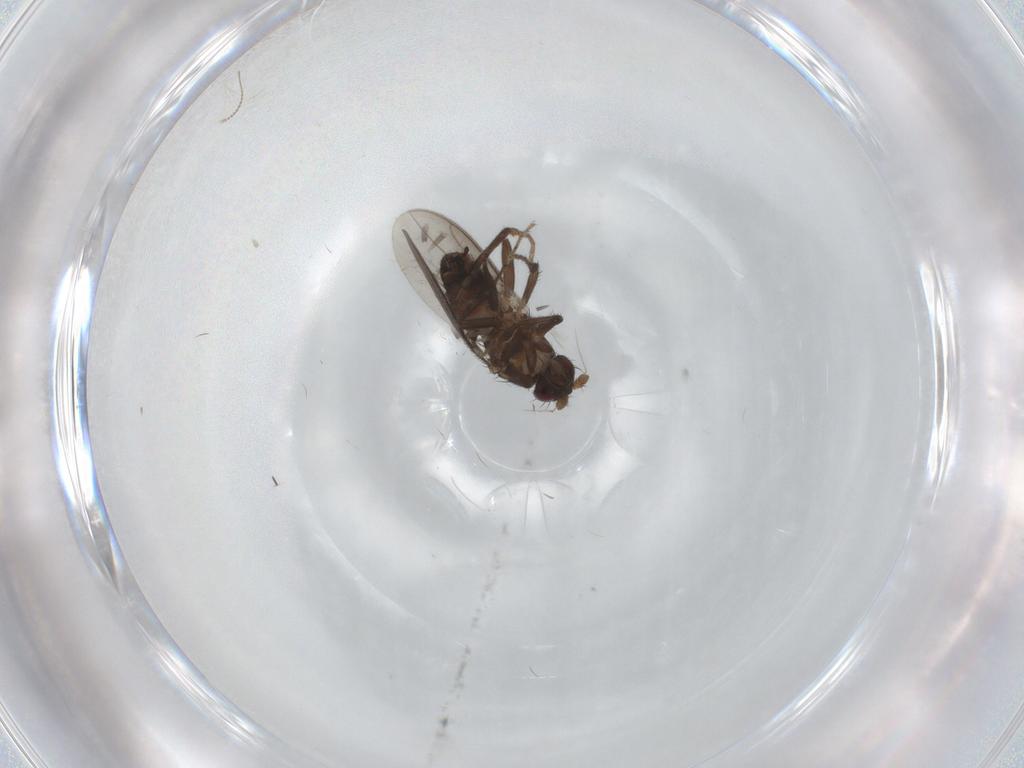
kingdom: Animalia
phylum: Arthropoda
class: Insecta
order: Diptera
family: Sphaeroceridae
